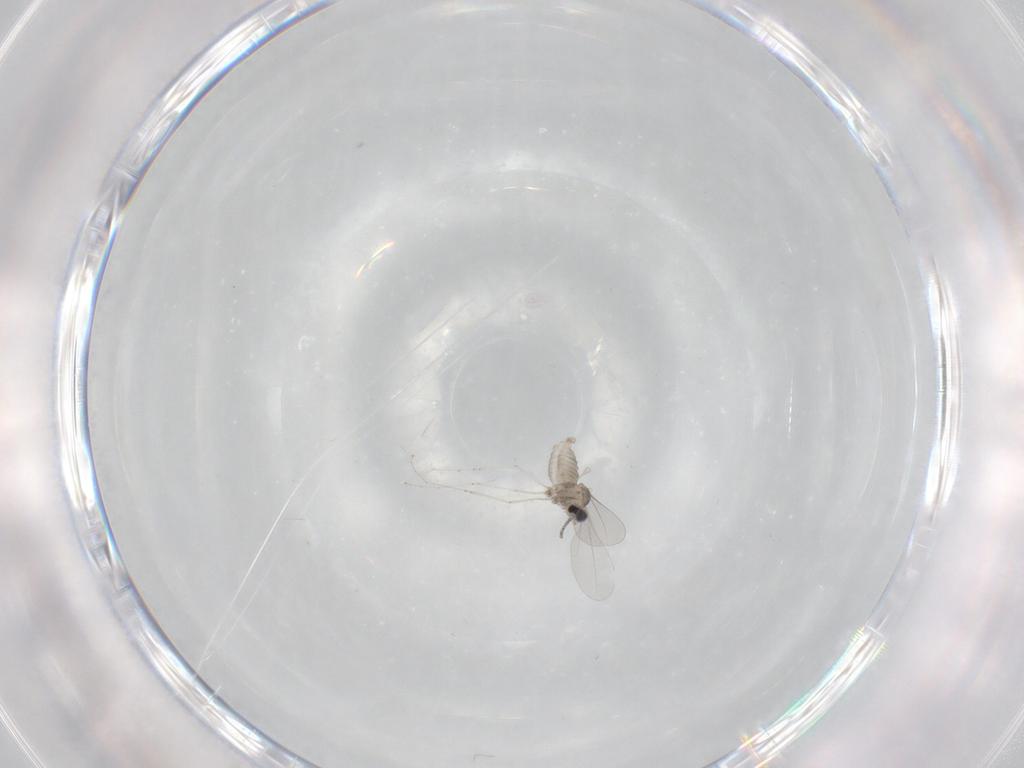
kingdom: Animalia
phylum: Arthropoda
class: Insecta
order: Diptera
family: Cecidomyiidae
